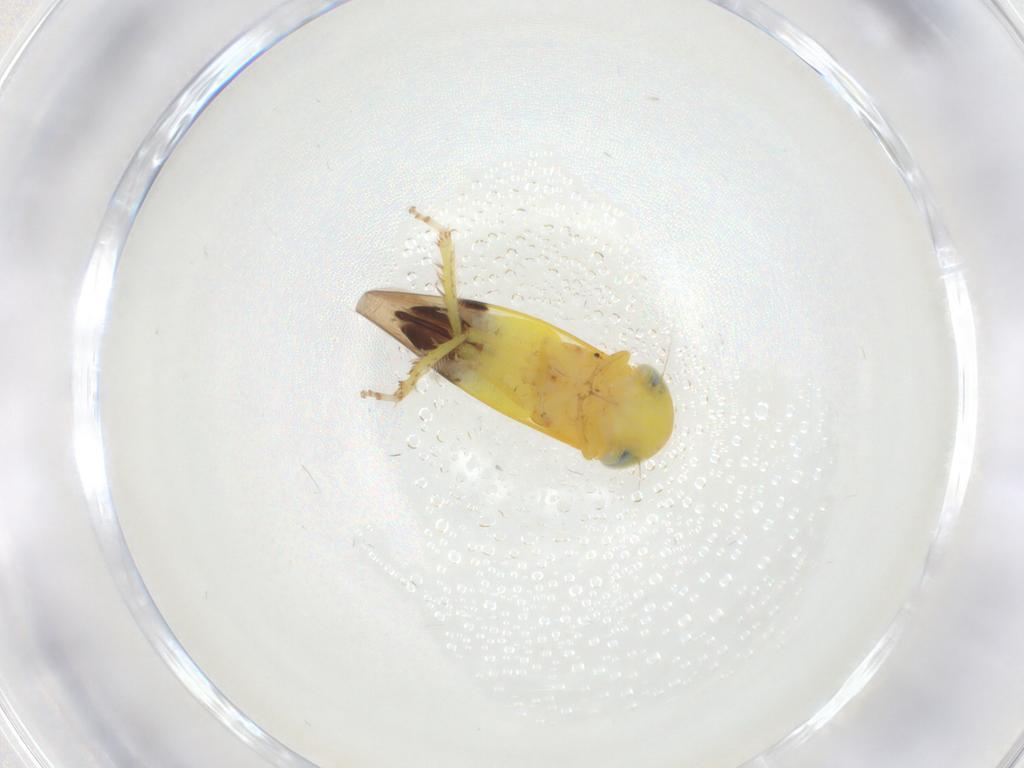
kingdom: Animalia
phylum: Arthropoda
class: Insecta
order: Hemiptera
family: Cicadellidae
